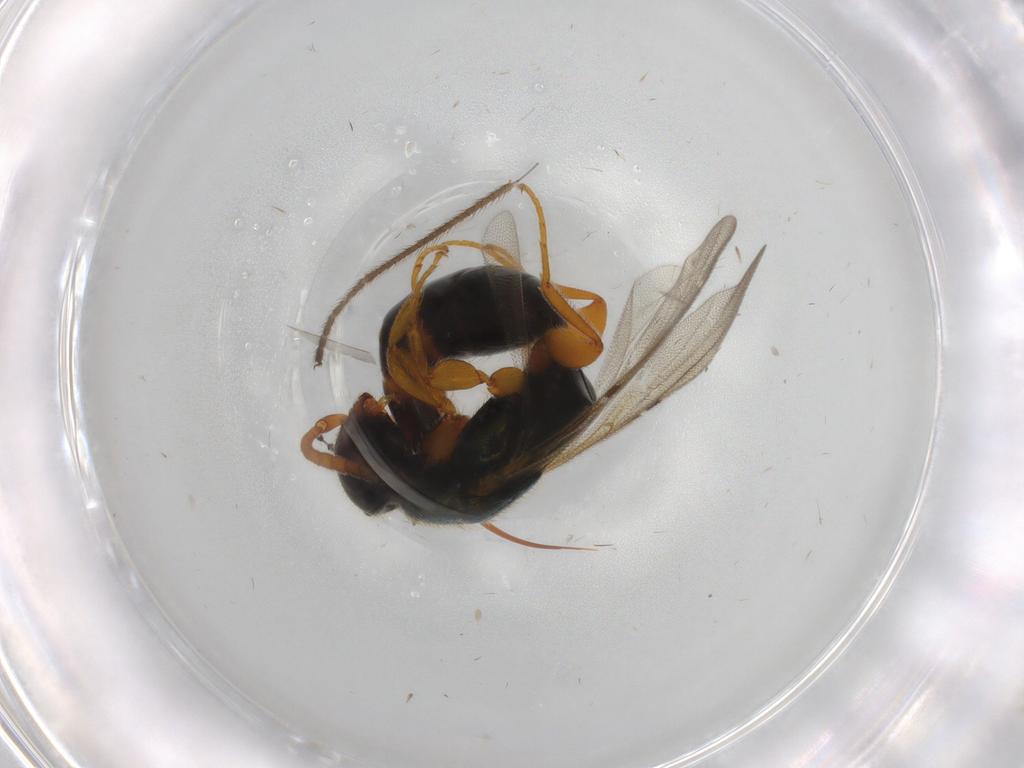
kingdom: Animalia
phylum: Arthropoda
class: Insecta
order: Hymenoptera
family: Bethylidae
